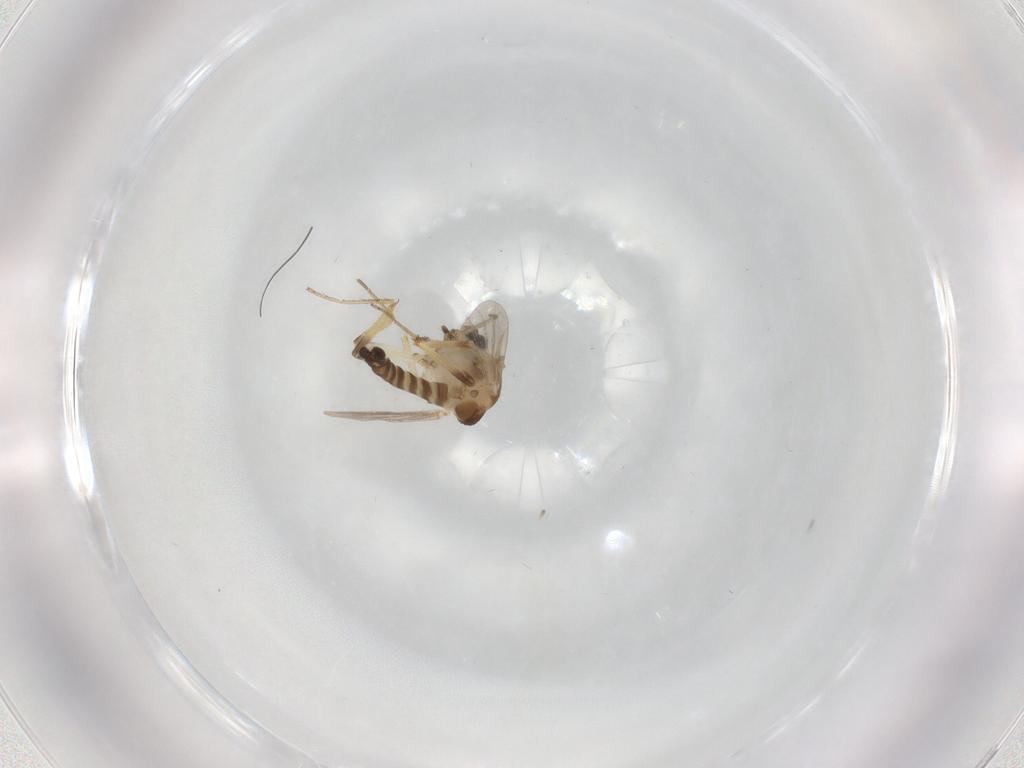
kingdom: Animalia
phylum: Arthropoda
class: Insecta
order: Diptera
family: Ceratopogonidae
